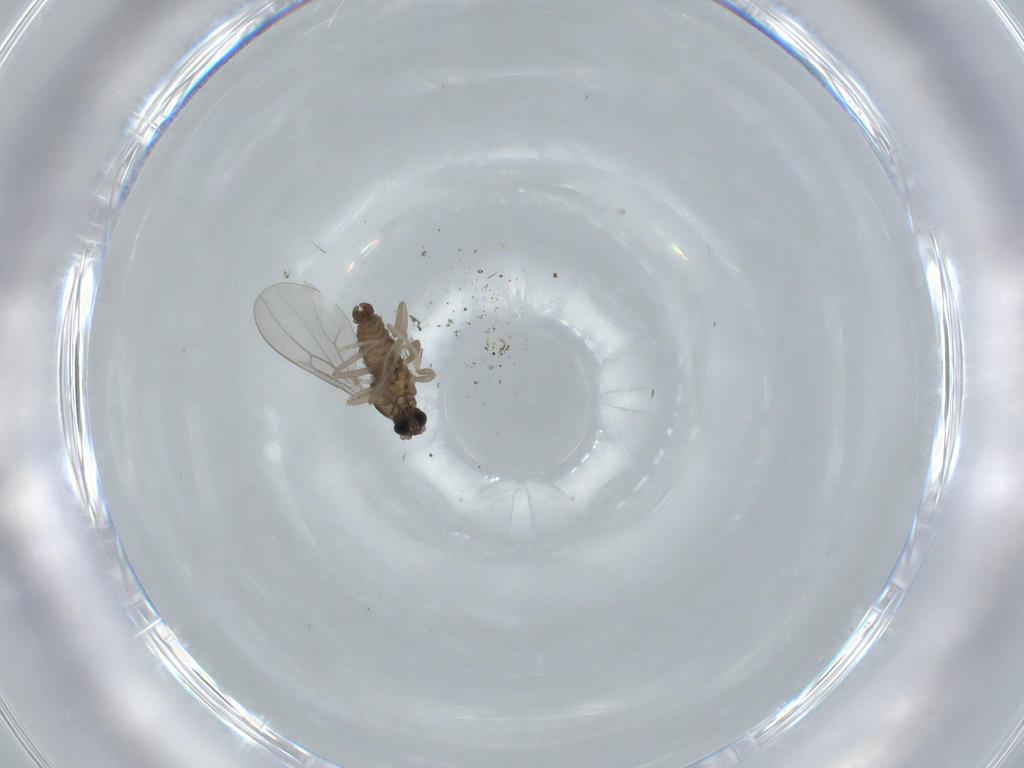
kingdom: Animalia
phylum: Arthropoda
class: Insecta
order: Diptera
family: Cecidomyiidae
